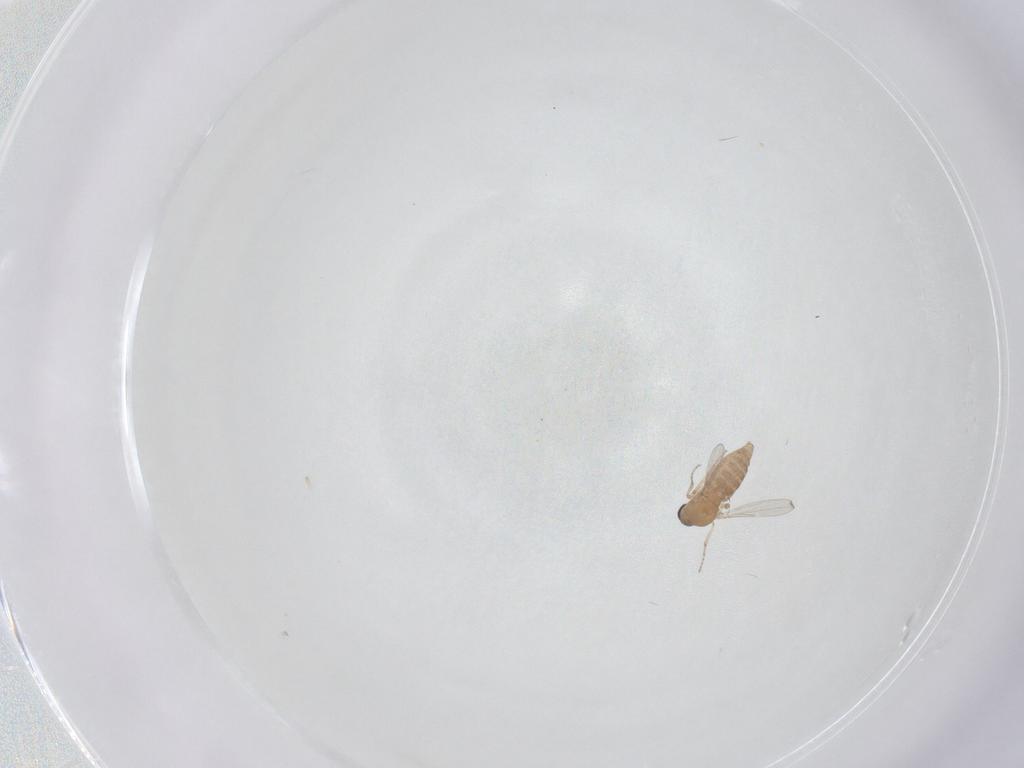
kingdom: Animalia
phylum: Arthropoda
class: Insecta
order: Diptera
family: Ceratopogonidae
